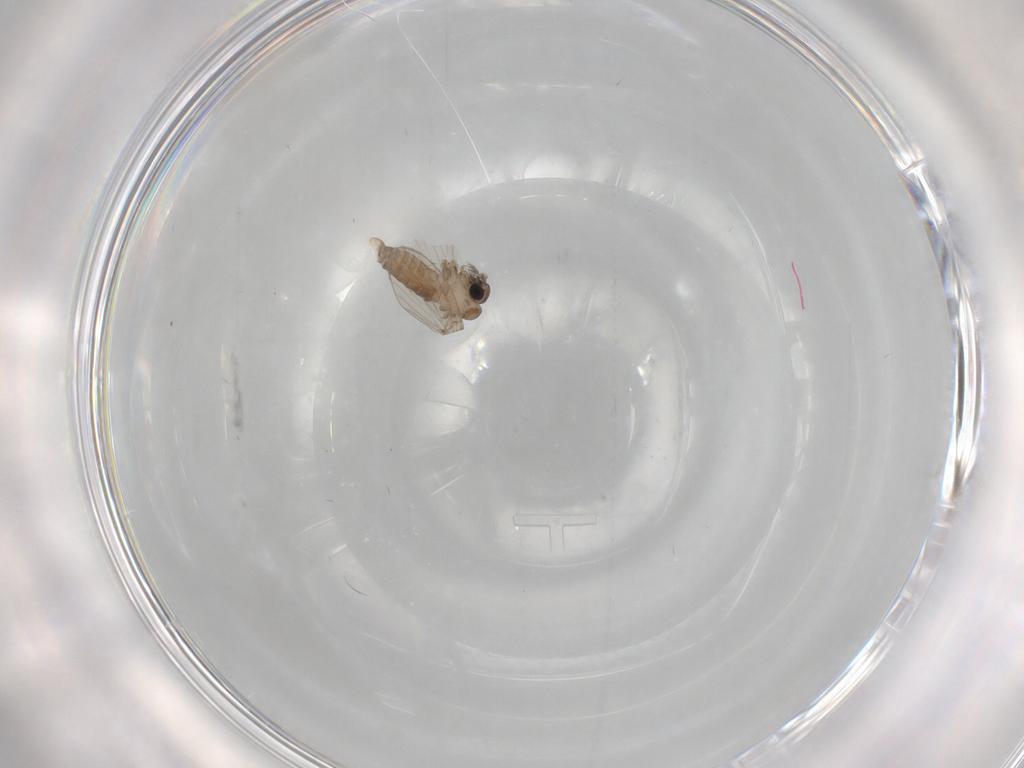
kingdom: Animalia
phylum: Arthropoda
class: Insecta
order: Diptera
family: Psychodidae
